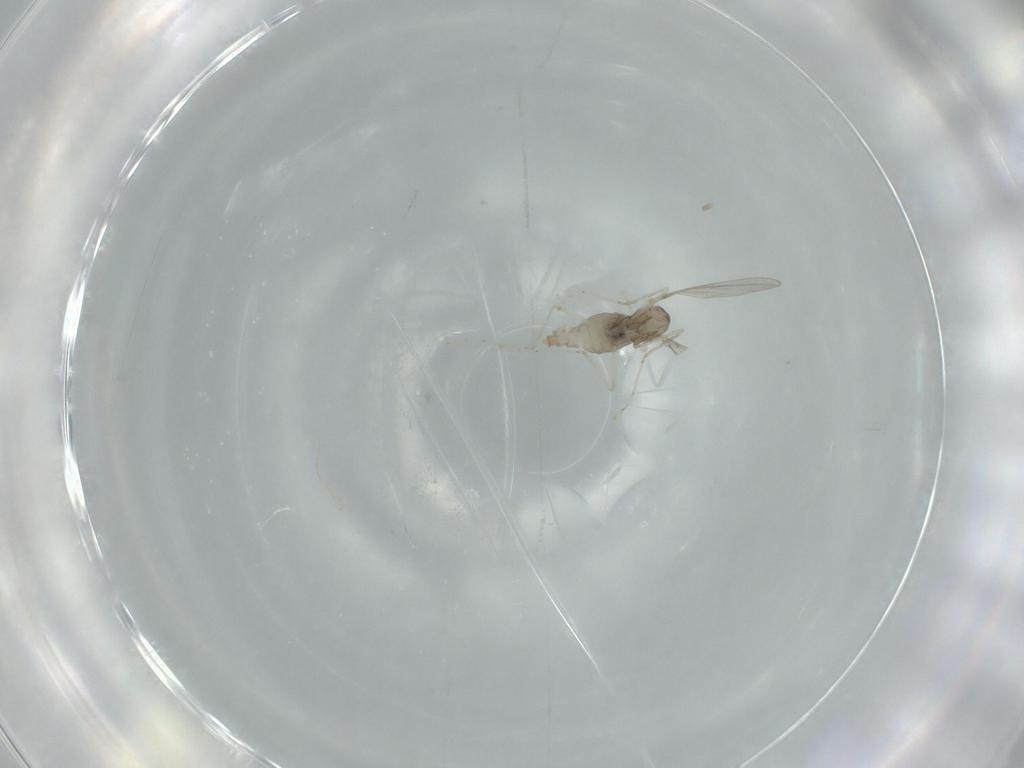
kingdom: Animalia
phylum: Arthropoda
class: Insecta
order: Diptera
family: Cecidomyiidae
